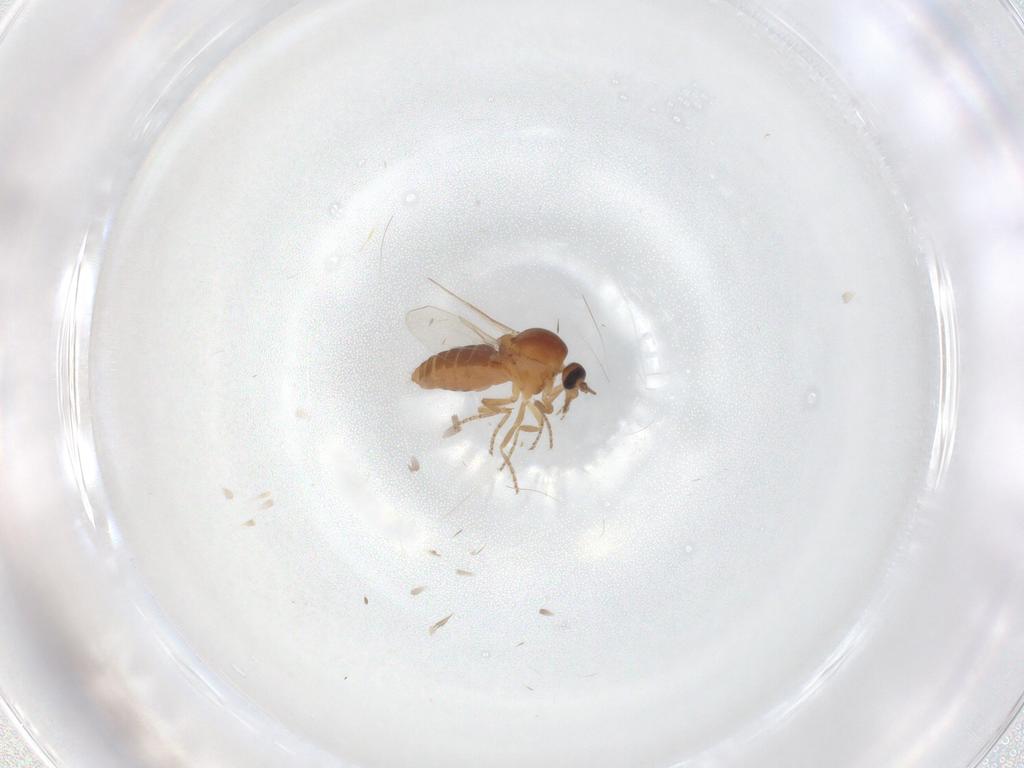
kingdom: Animalia
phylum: Arthropoda
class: Insecta
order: Diptera
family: Ceratopogonidae
